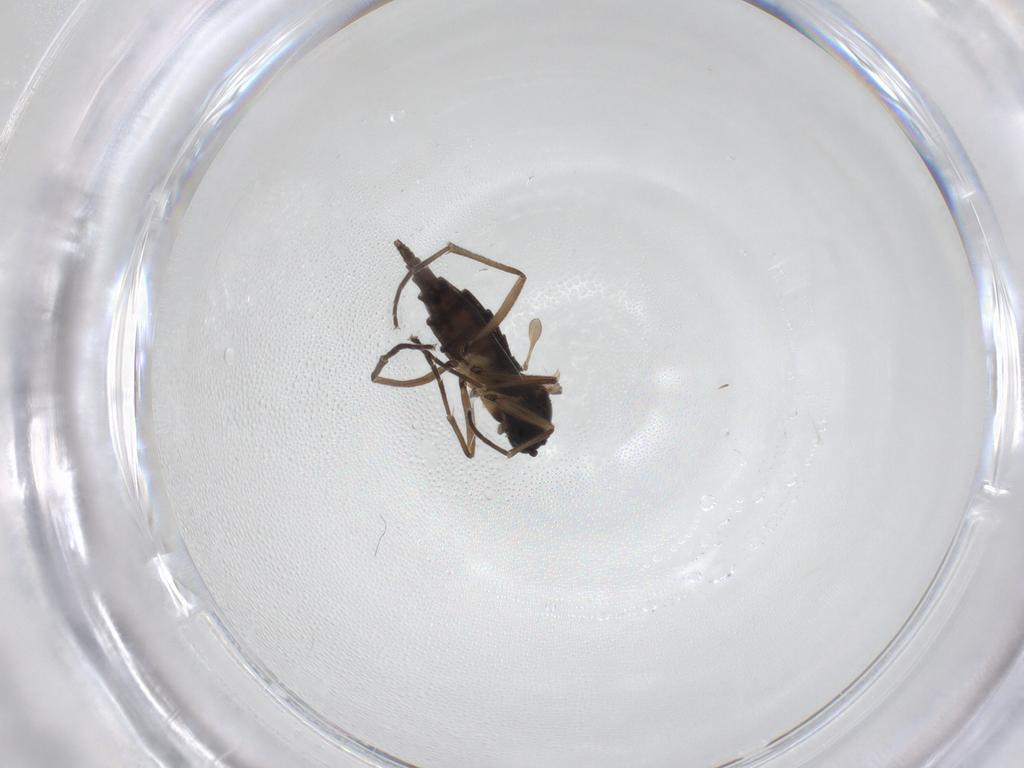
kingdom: Animalia
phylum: Arthropoda
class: Insecta
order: Diptera
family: Sciaridae
